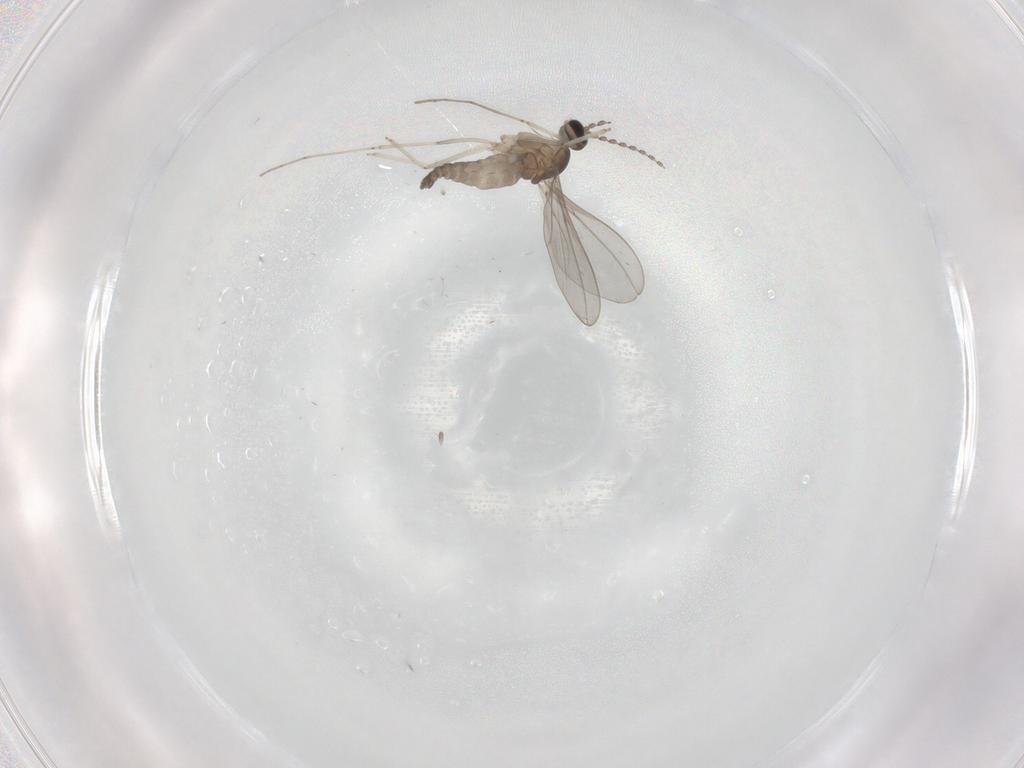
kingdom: Animalia
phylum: Arthropoda
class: Insecta
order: Diptera
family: Cecidomyiidae
